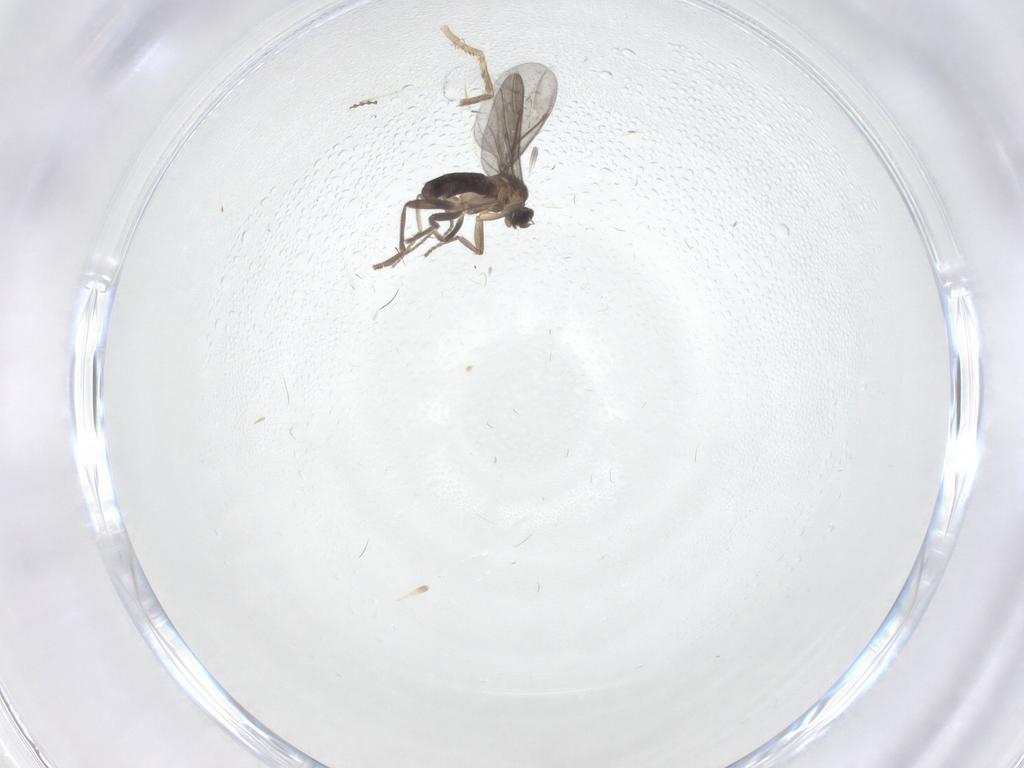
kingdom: Animalia
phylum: Arthropoda
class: Insecta
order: Diptera
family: Phoridae
